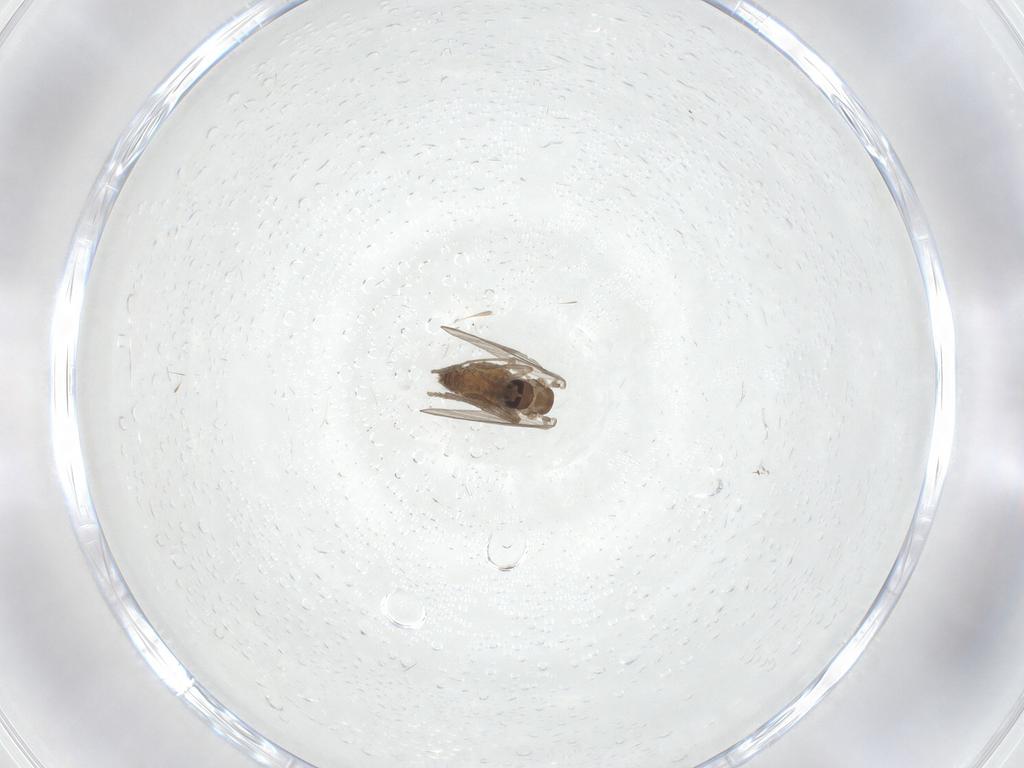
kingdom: Animalia
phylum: Arthropoda
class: Insecta
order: Diptera
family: Psychodidae
